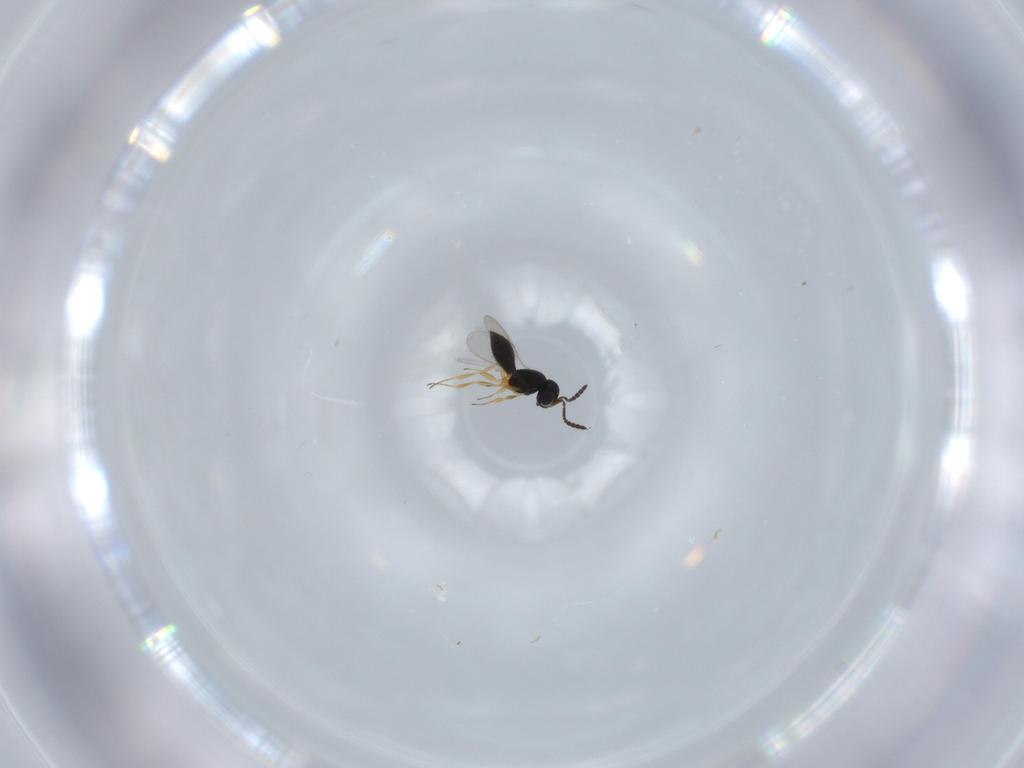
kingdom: Animalia
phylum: Arthropoda
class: Insecta
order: Hymenoptera
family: Scelionidae
